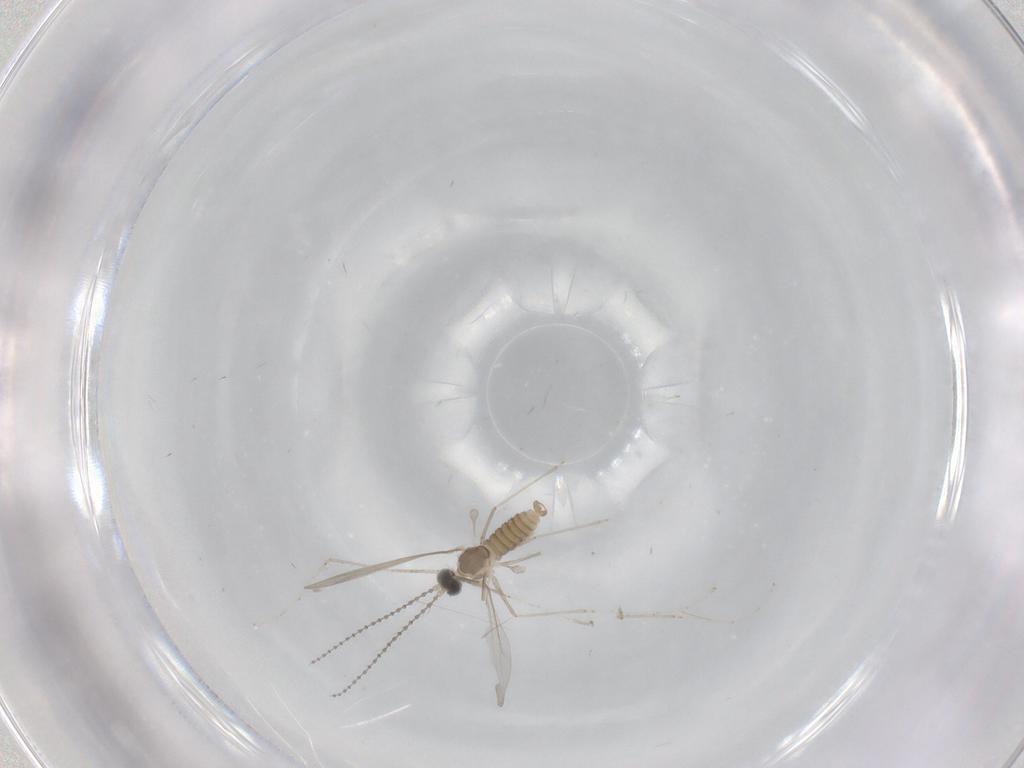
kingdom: Animalia
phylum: Arthropoda
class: Insecta
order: Diptera
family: Cecidomyiidae
